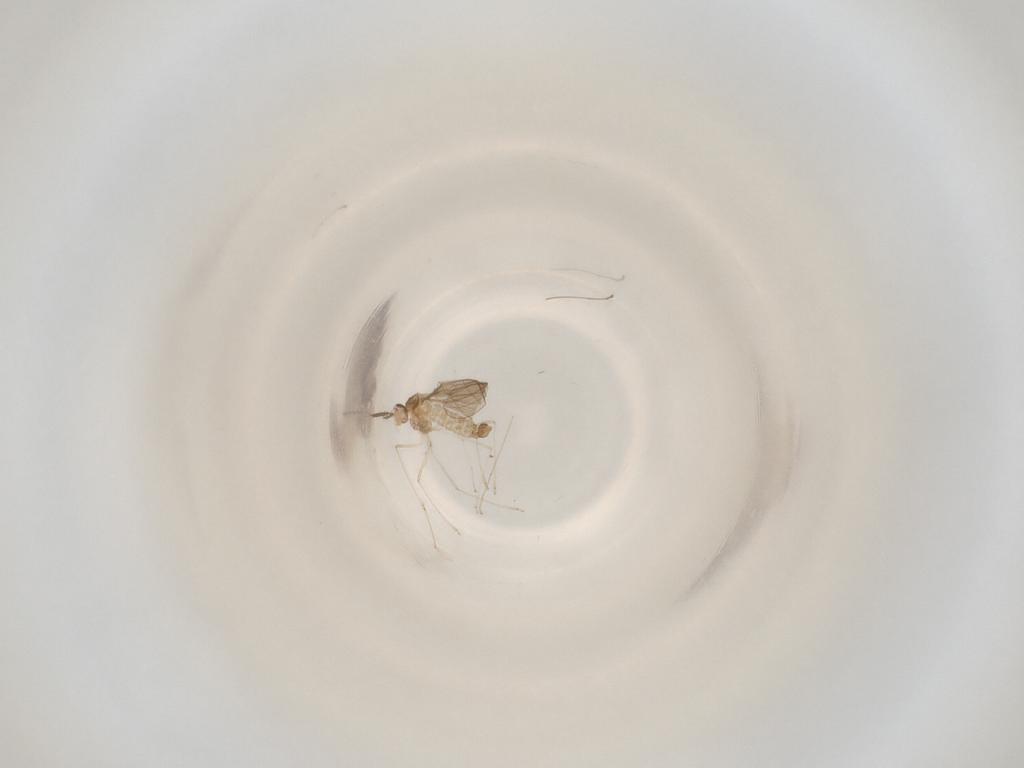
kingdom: Animalia
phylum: Arthropoda
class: Insecta
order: Diptera
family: Cecidomyiidae
